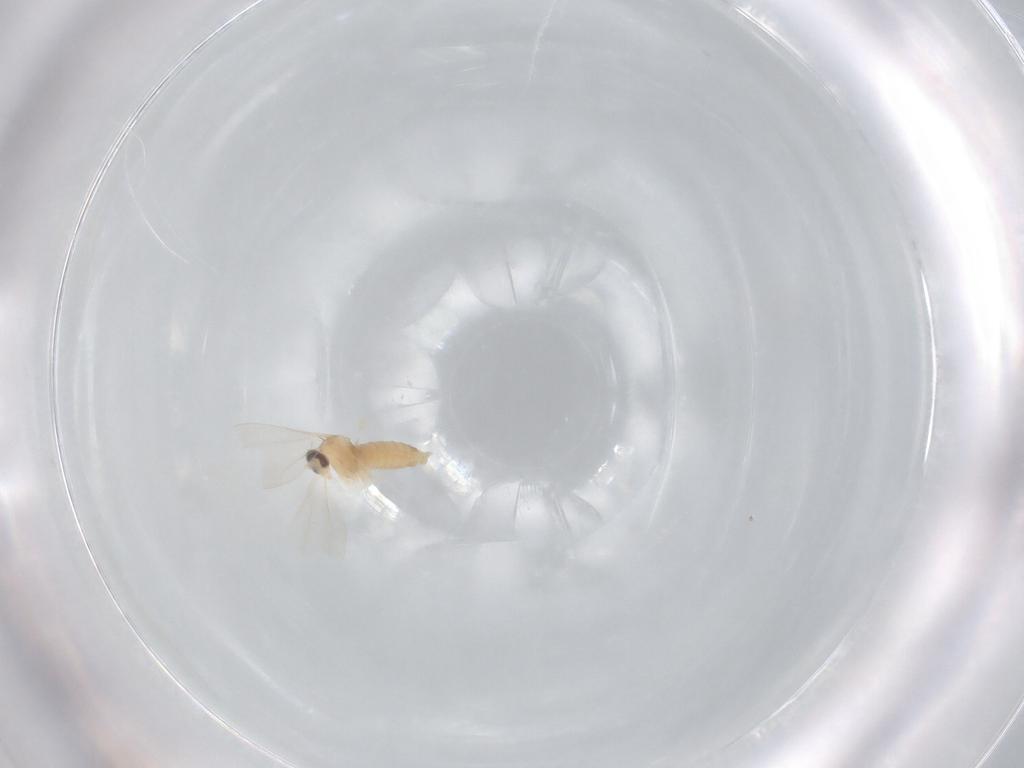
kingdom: Animalia
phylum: Arthropoda
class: Insecta
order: Diptera
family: Cecidomyiidae
